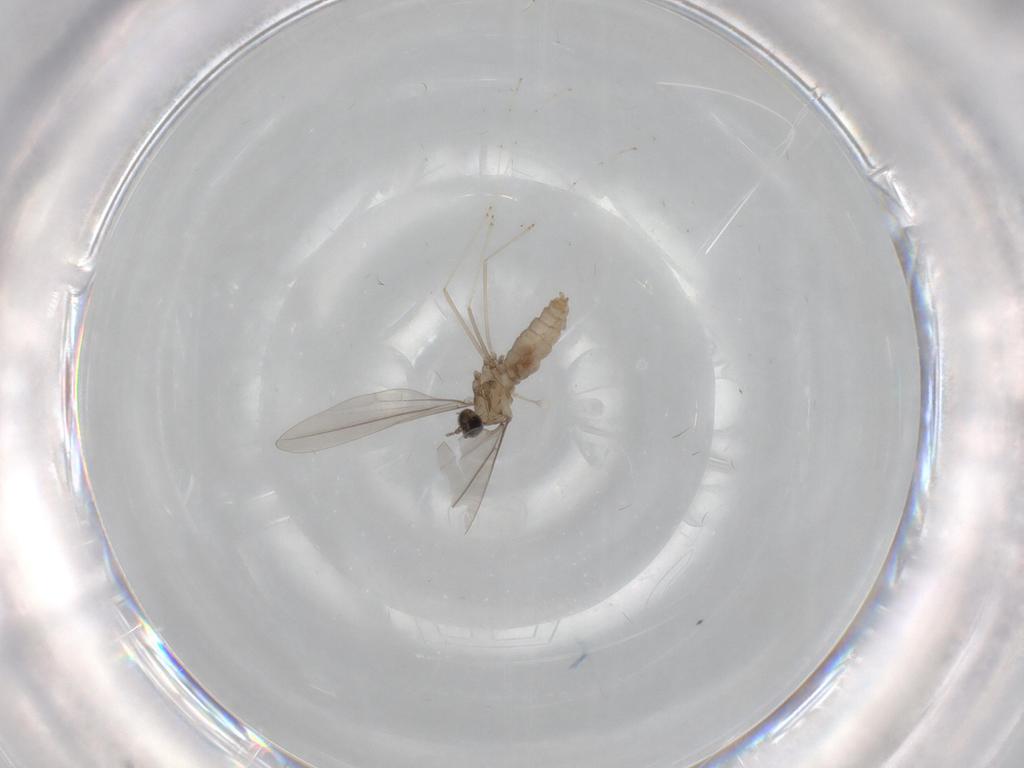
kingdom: Animalia
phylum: Arthropoda
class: Insecta
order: Diptera
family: Cecidomyiidae
